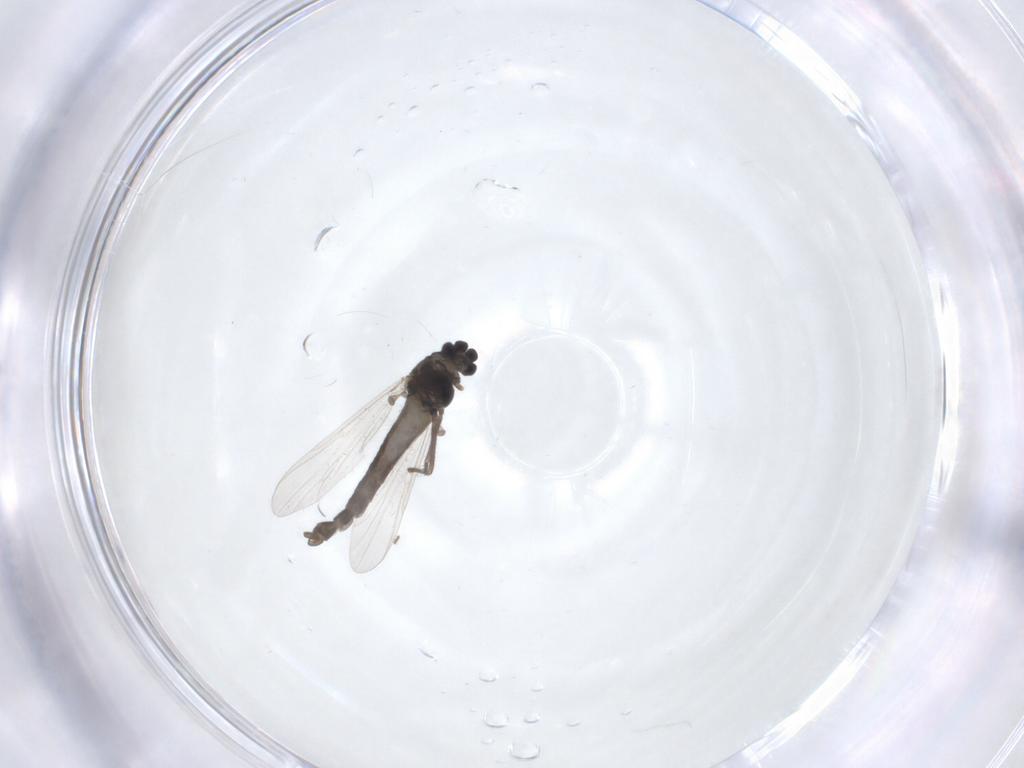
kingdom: Animalia
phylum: Arthropoda
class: Insecta
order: Diptera
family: Chironomidae
